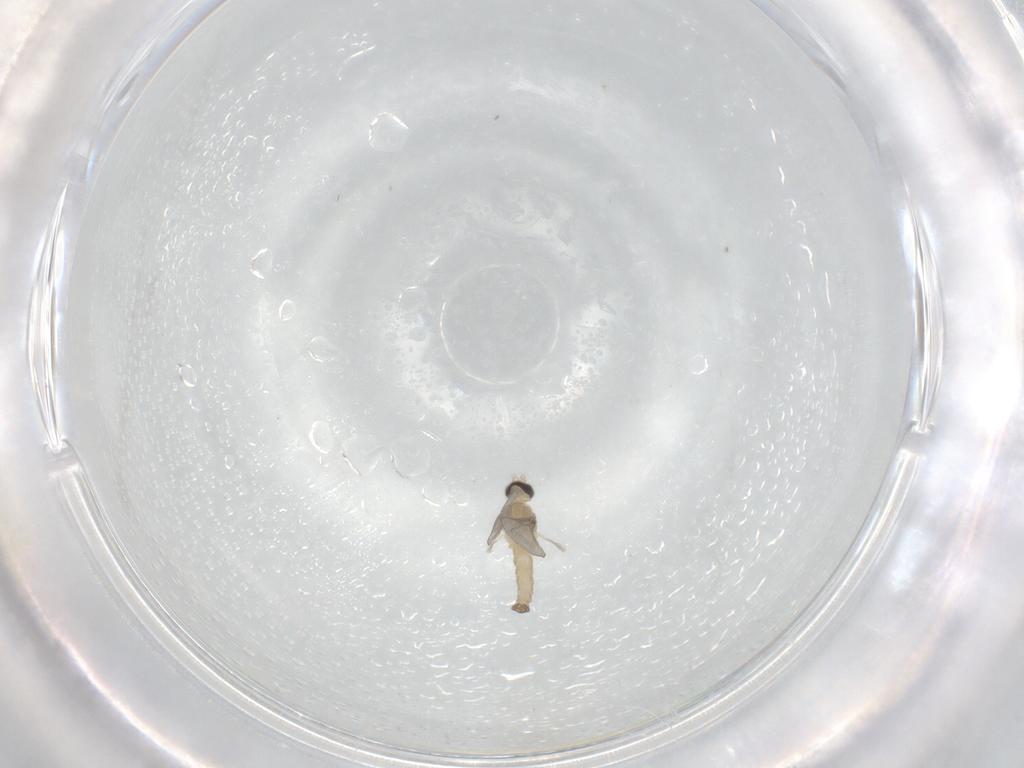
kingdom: Animalia
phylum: Arthropoda
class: Insecta
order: Diptera
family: Cecidomyiidae
